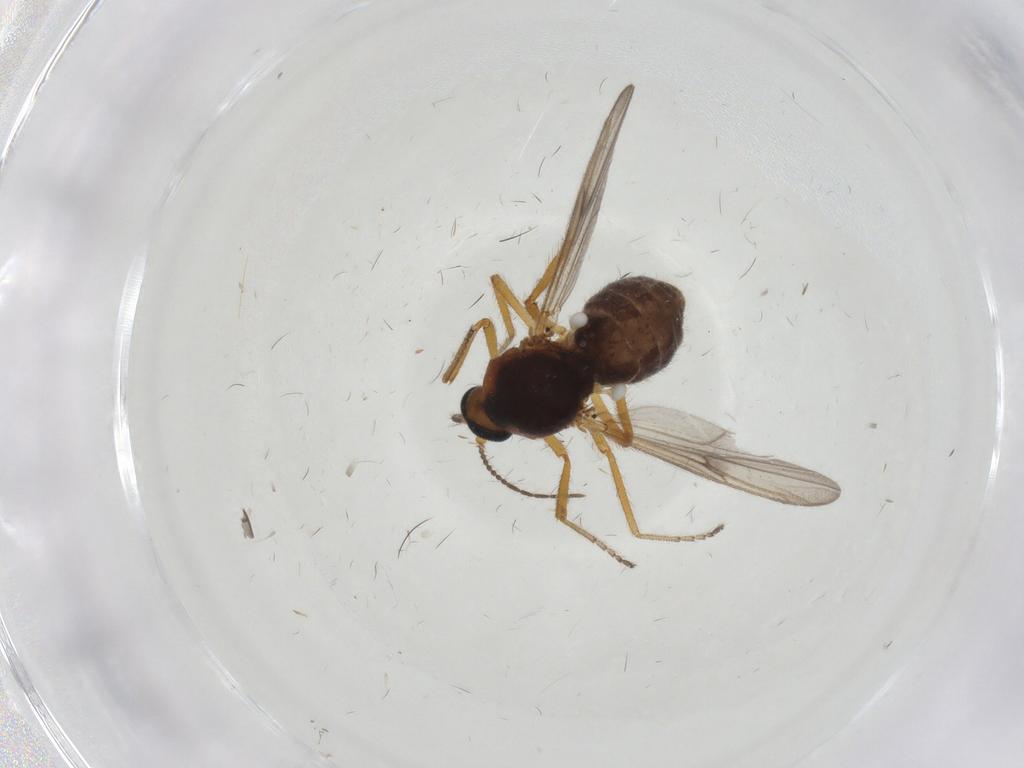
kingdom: Animalia
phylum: Arthropoda
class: Insecta
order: Diptera
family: Ceratopogonidae
